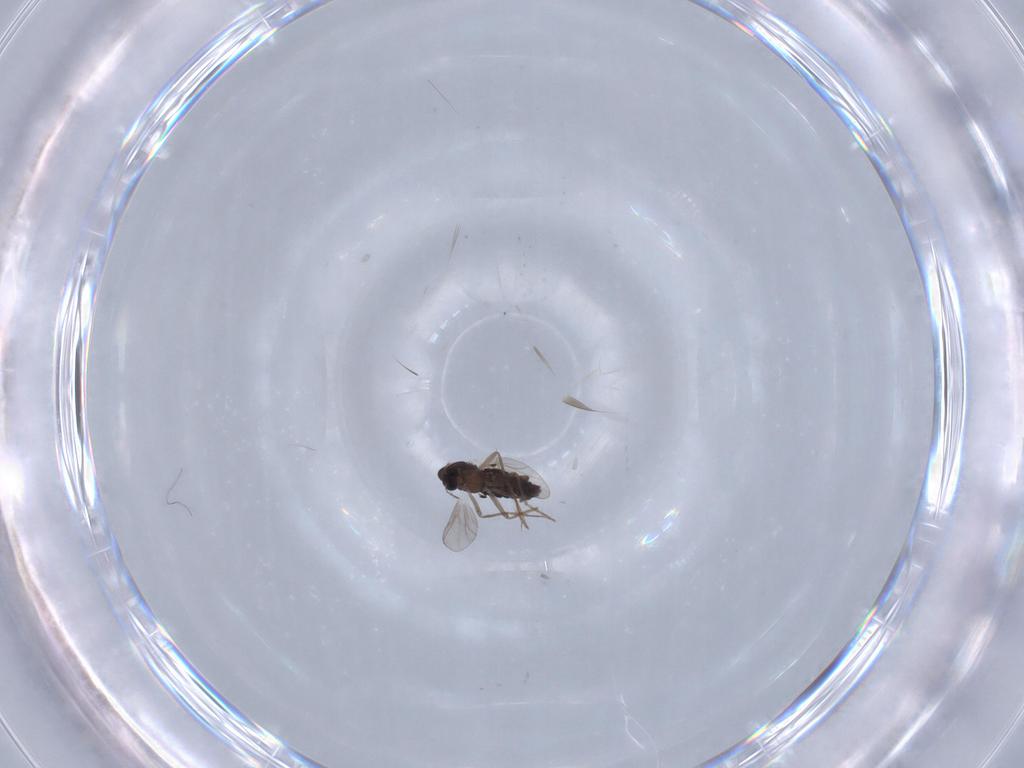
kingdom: Animalia
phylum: Arthropoda
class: Insecta
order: Diptera
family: Chironomidae
